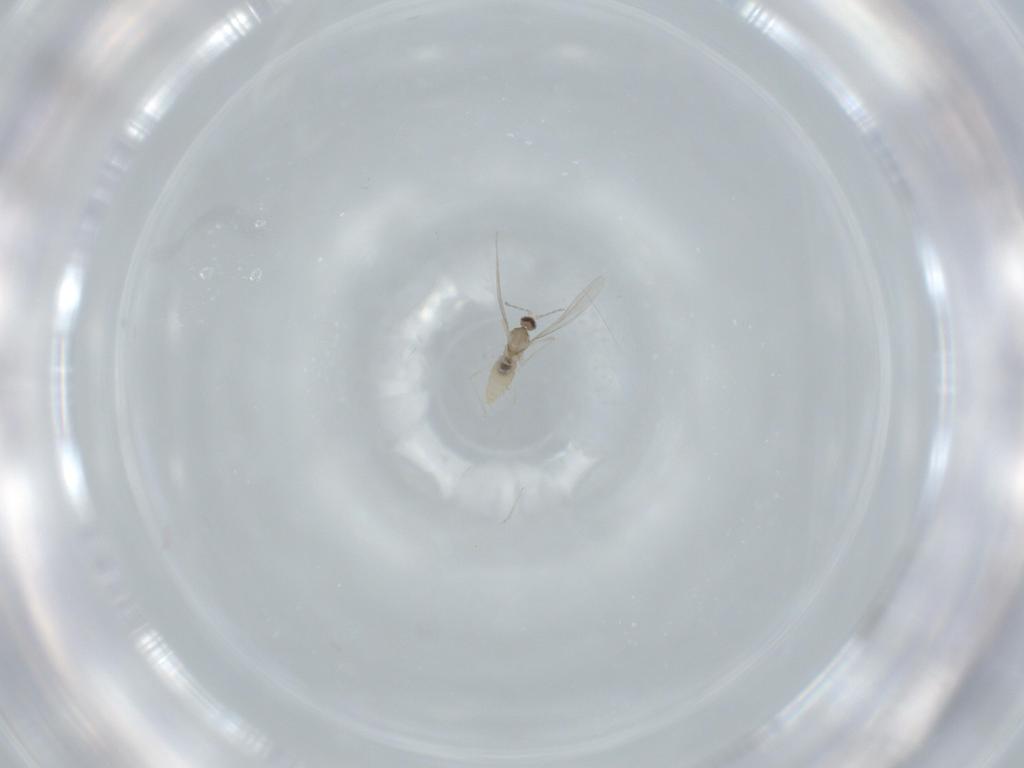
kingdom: Animalia
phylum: Arthropoda
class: Insecta
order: Diptera
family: Cecidomyiidae
